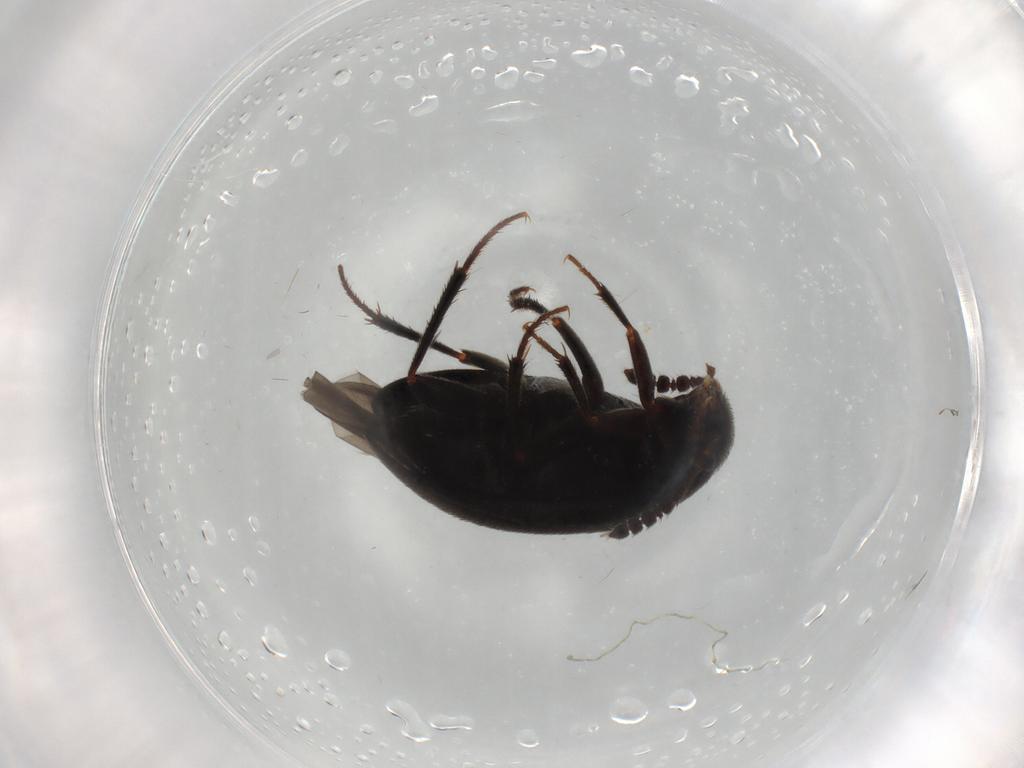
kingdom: Animalia
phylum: Arthropoda
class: Insecta
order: Coleoptera
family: Leiodidae
